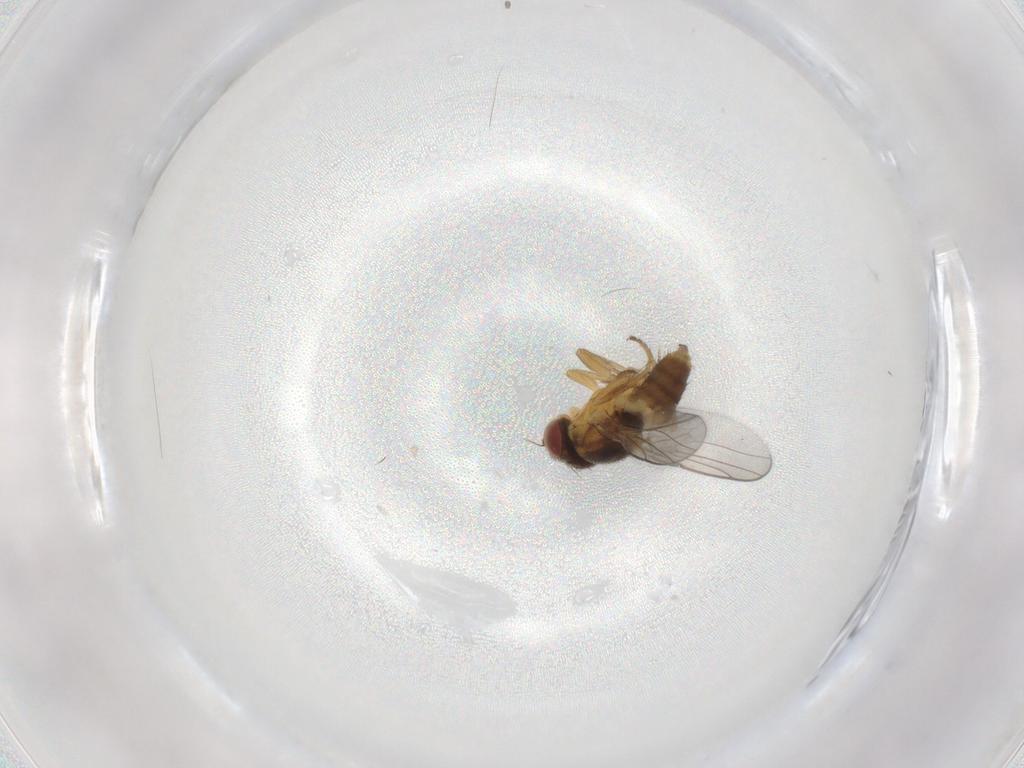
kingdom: Animalia
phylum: Arthropoda
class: Insecta
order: Diptera
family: Chloropidae
